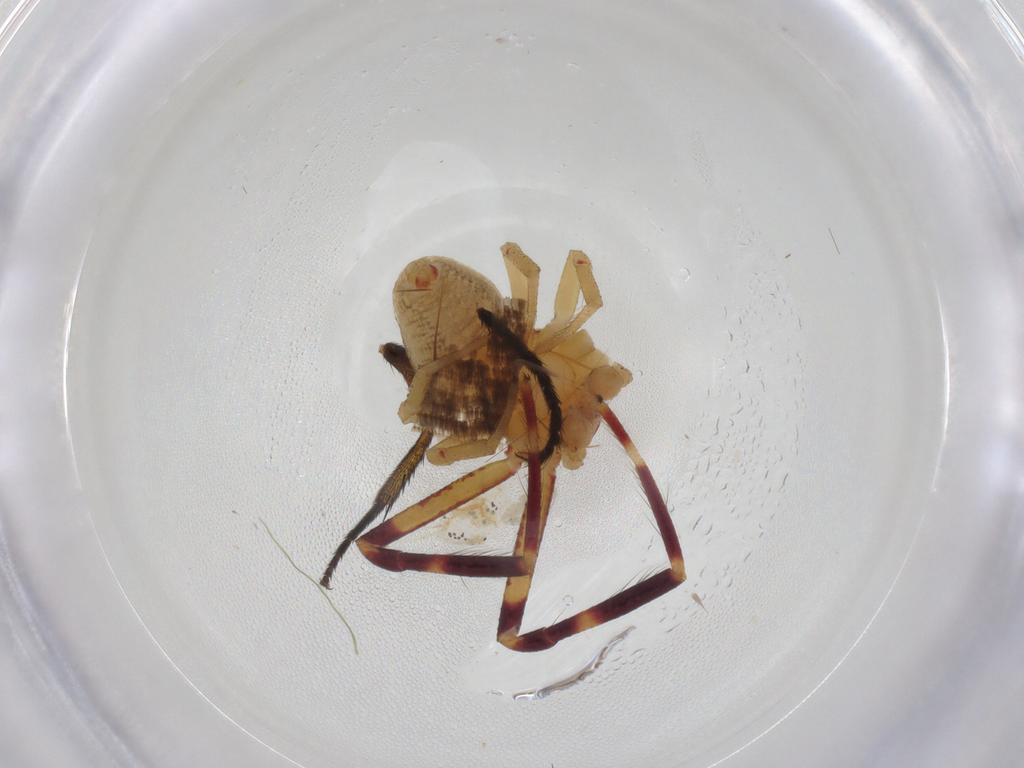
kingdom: Animalia
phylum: Arthropoda
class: Arachnida
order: Araneae
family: Thomisidae
